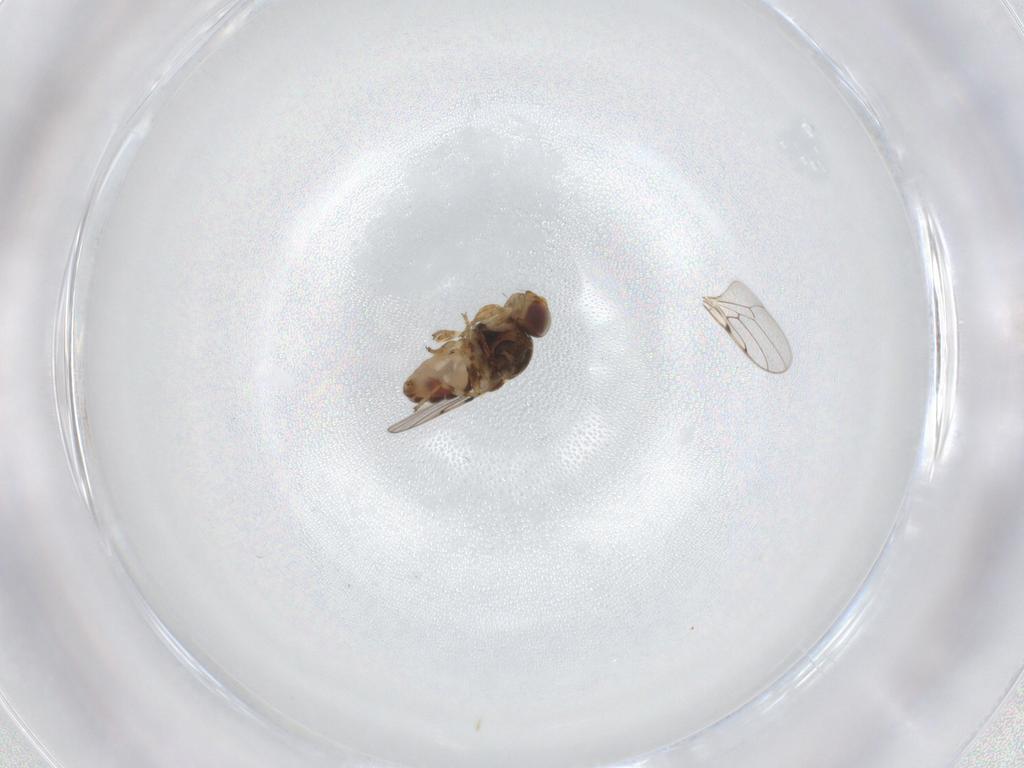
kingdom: Animalia
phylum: Arthropoda
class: Insecta
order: Diptera
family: Chloropidae
